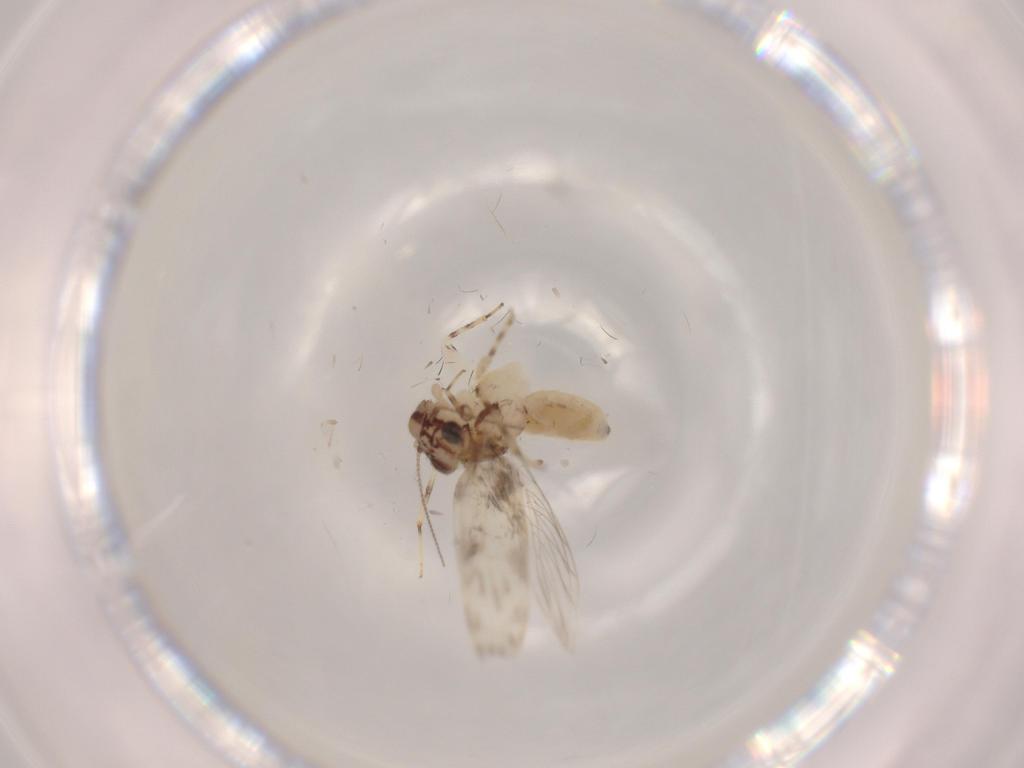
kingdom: Animalia
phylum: Arthropoda
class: Insecta
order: Psocodea
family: Lepidopsocidae
